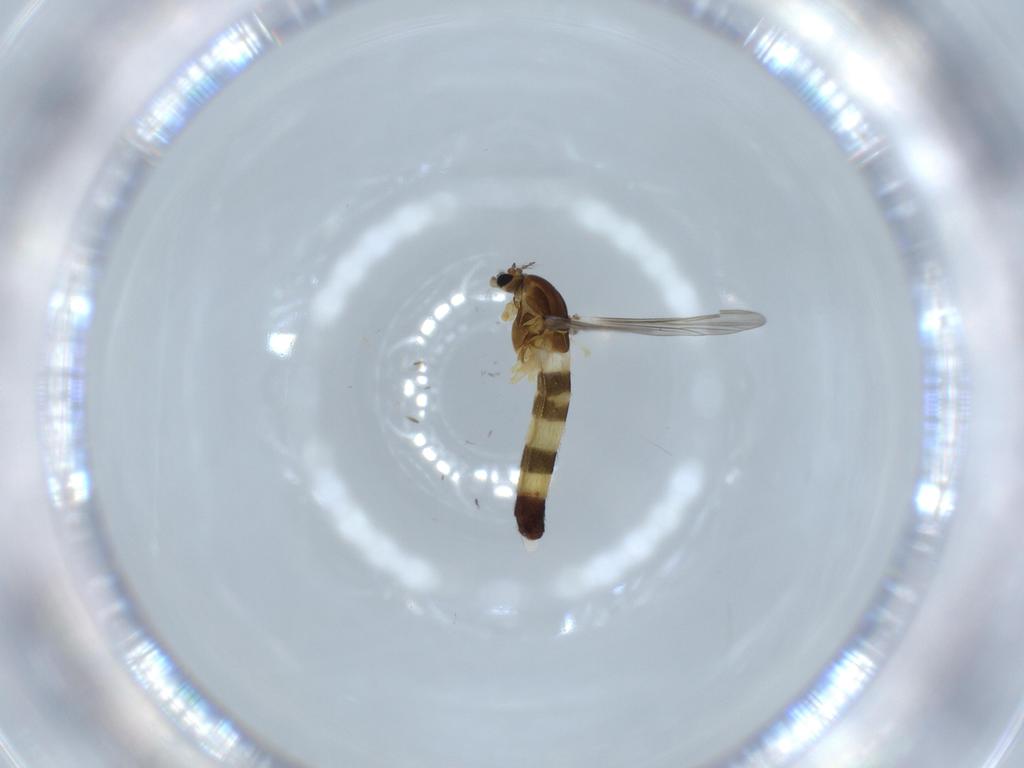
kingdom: Animalia
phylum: Arthropoda
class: Insecta
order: Diptera
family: Chironomidae
